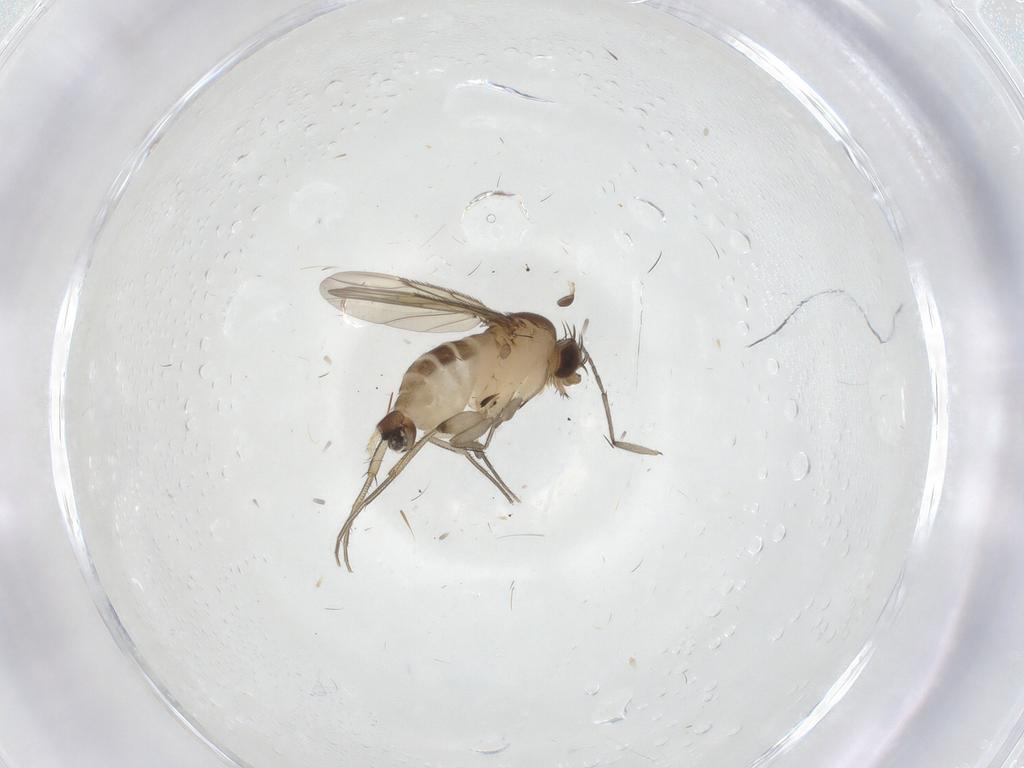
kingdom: Animalia
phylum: Arthropoda
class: Insecta
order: Diptera
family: Phoridae
